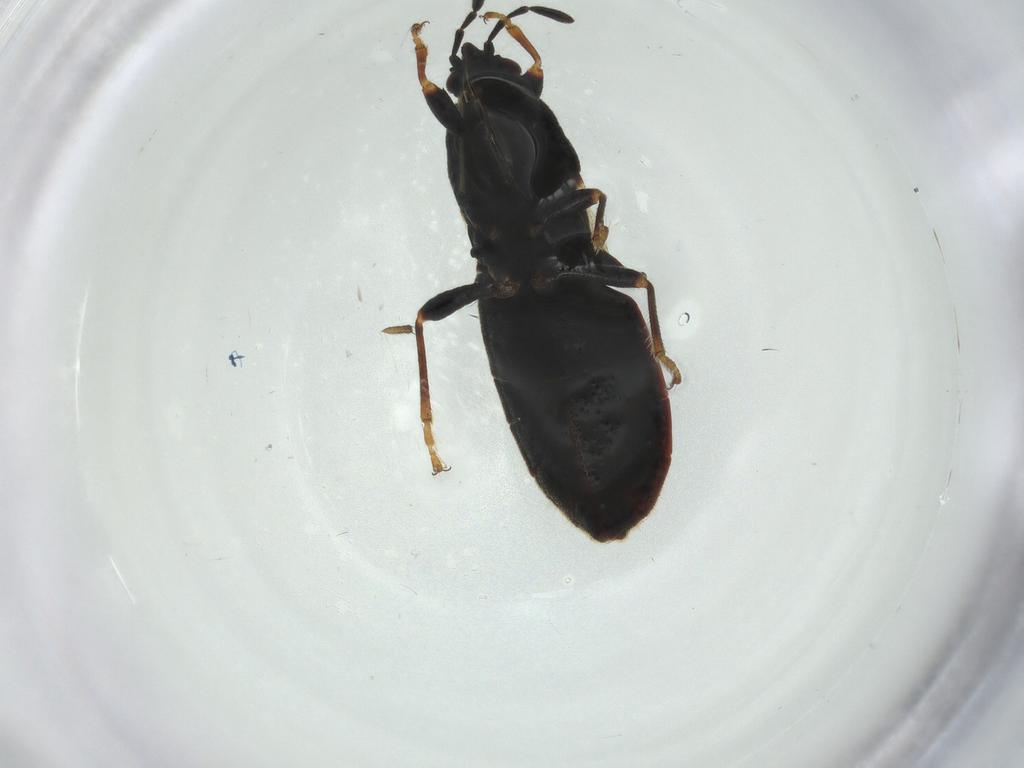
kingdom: Animalia
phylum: Arthropoda
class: Insecta
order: Hemiptera
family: Blissidae
